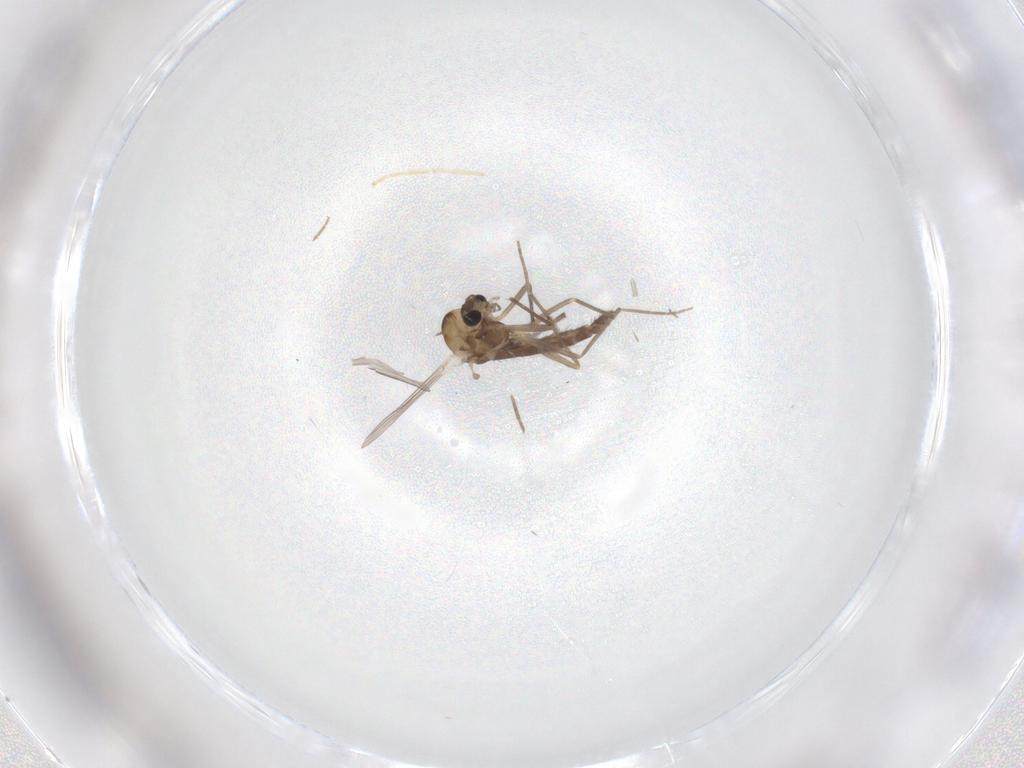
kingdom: Animalia
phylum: Arthropoda
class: Insecta
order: Diptera
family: Chironomidae
